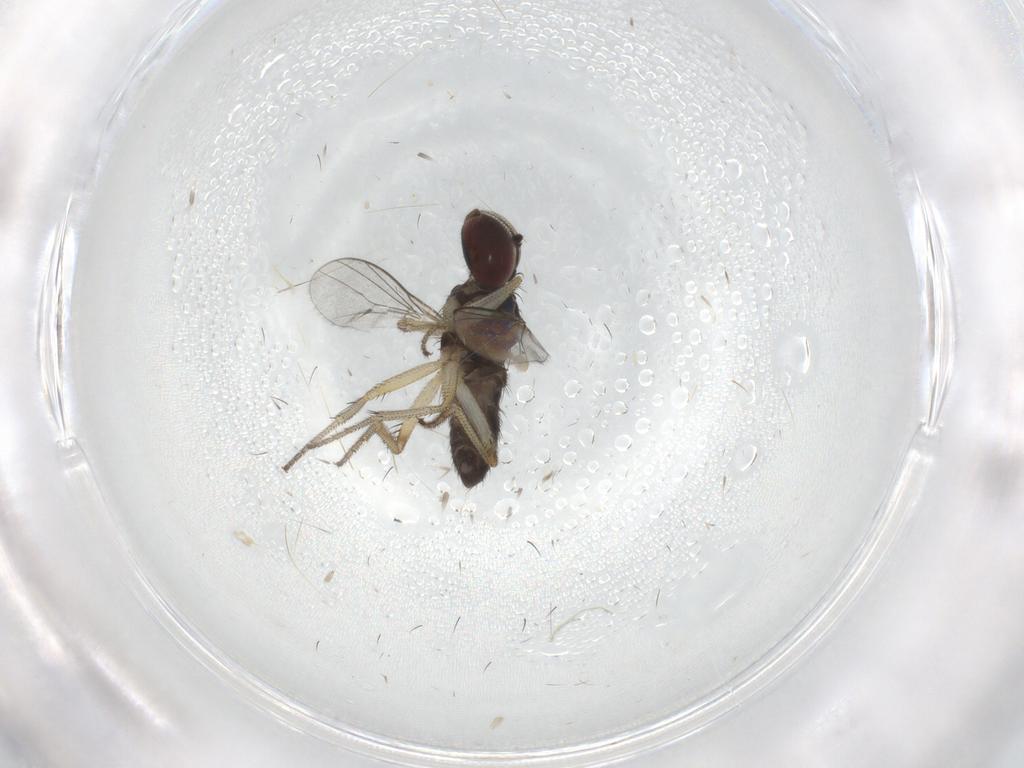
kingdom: Animalia
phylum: Arthropoda
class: Insecta
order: Diptera
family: Dolichopodidae
